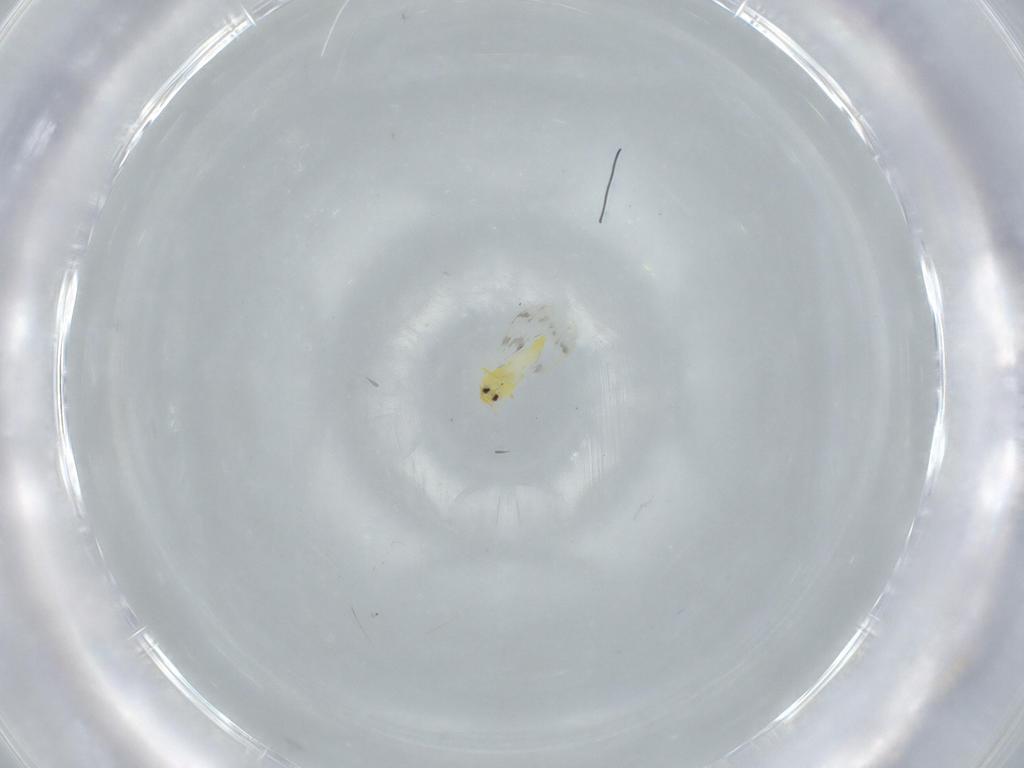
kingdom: Animalia
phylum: Arthropoda
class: Insecta
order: Hemiptera
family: Aleyrodidae
